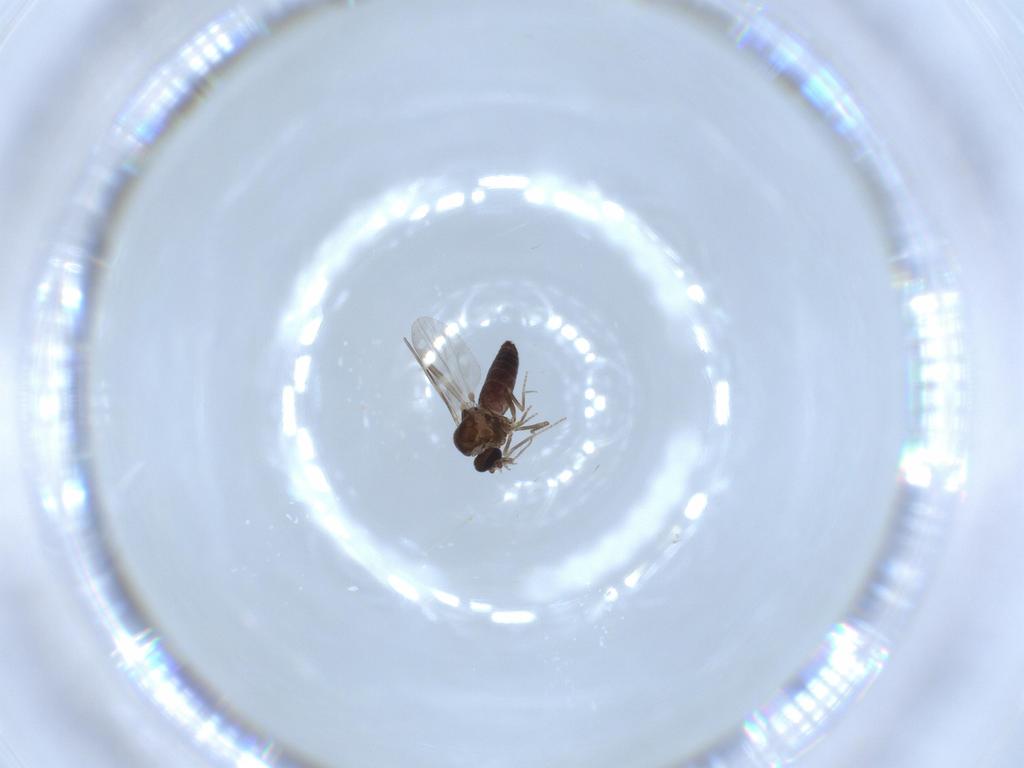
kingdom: Animalia
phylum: Arthropoda
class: Insecta
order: Diptera
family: Ceratopogonidae
